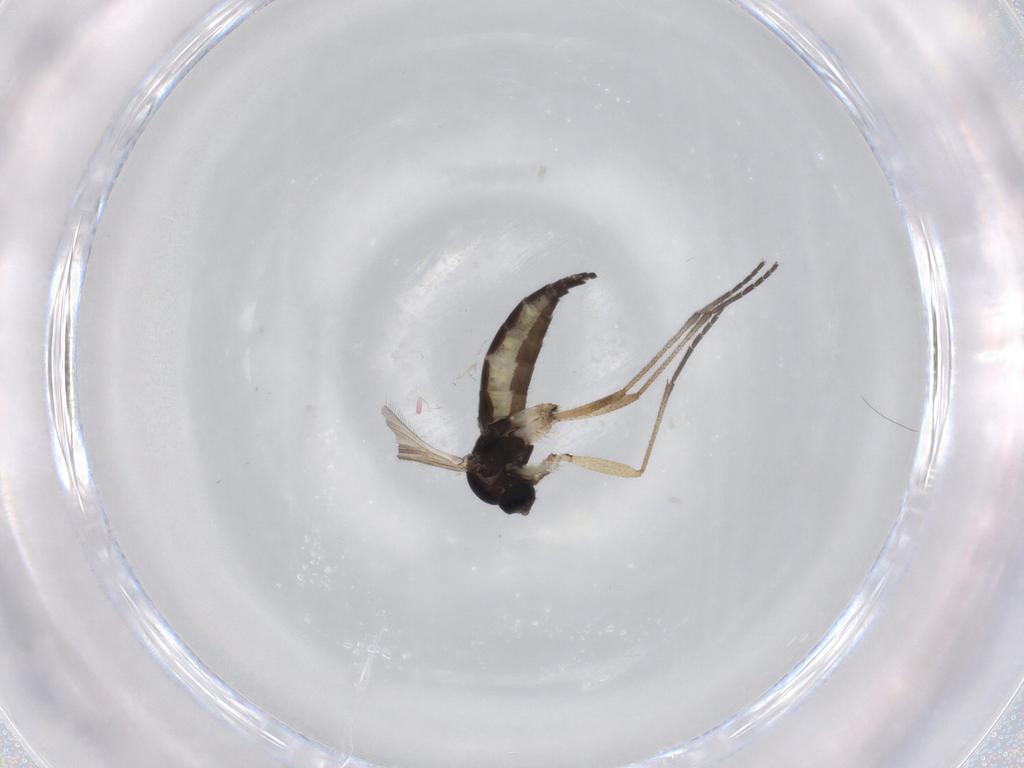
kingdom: Animalia
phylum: Arthropoda
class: Insecta
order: Diptera
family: Sciaridae
